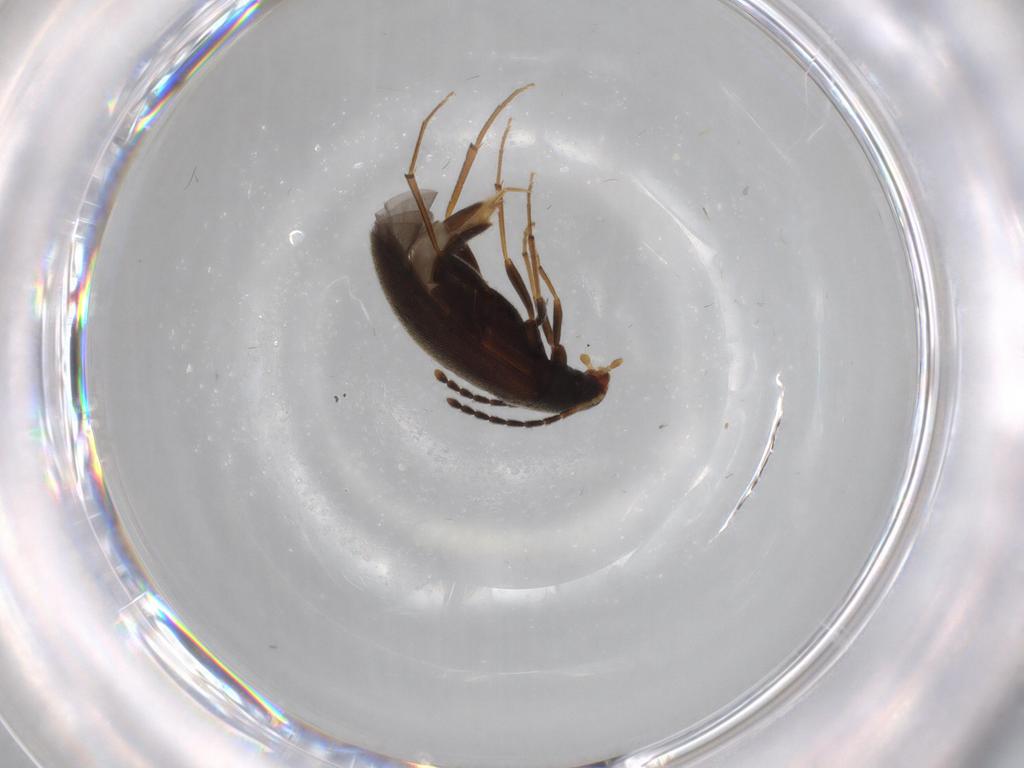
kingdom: Animalia
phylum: Arthropoda
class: Insecta
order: Coleoptera
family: Melandryidae
